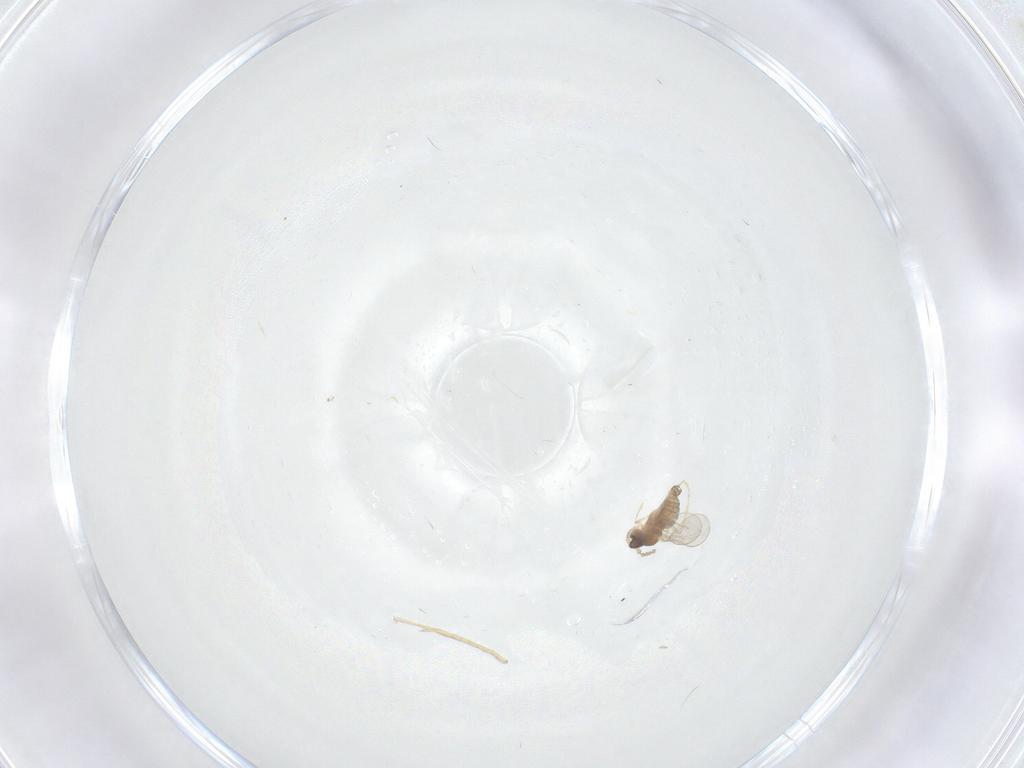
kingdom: Animalia
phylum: Arthropoda
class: Insecta
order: Diptera
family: Cecidomyiidae
